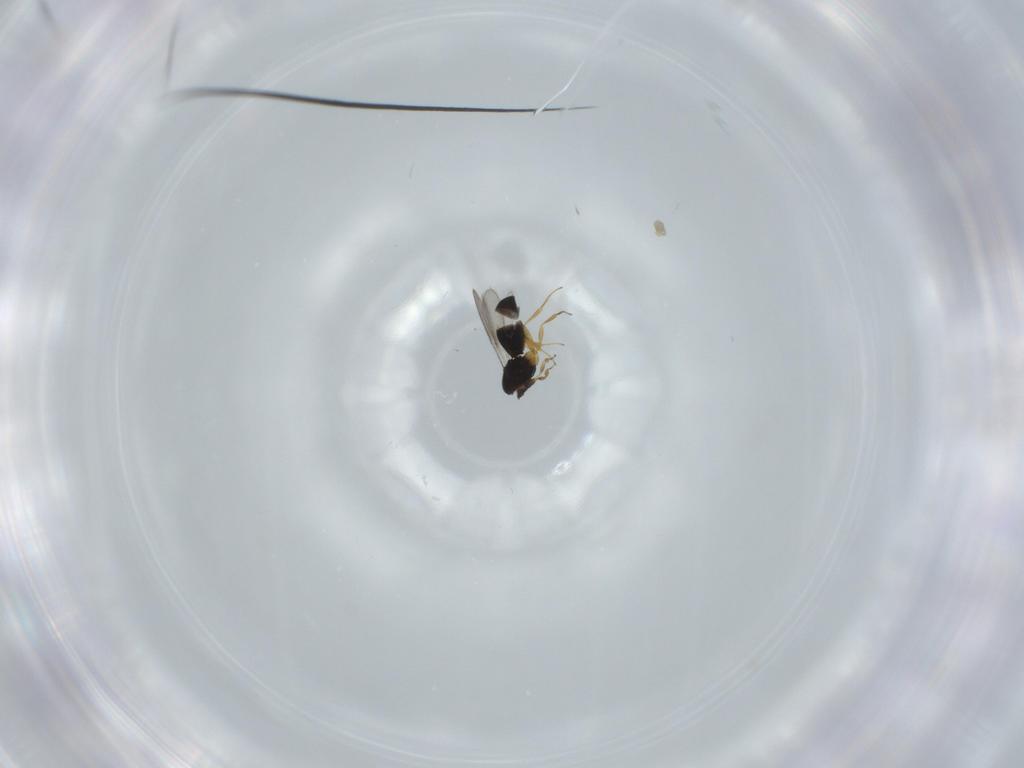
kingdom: Animalia
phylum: Arthropoda
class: Insecta
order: Hymenoptera
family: Scelionidae
